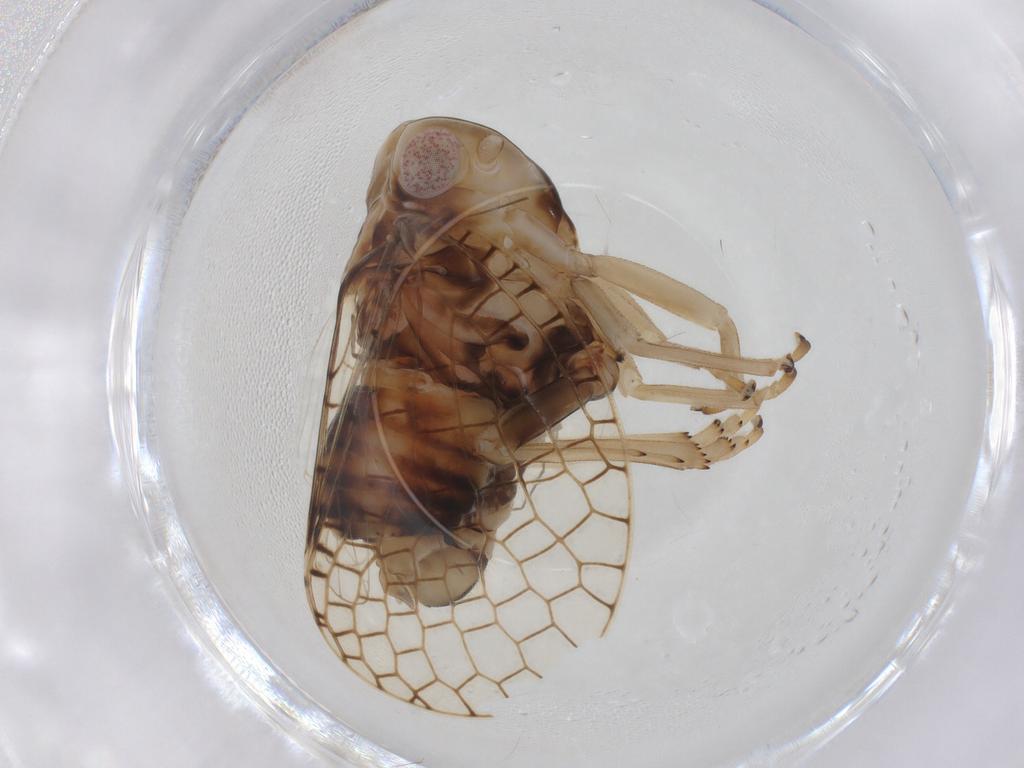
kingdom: Animalia
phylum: Arthropoda
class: Insecta
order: Hemiptera
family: Tropiduchidae
